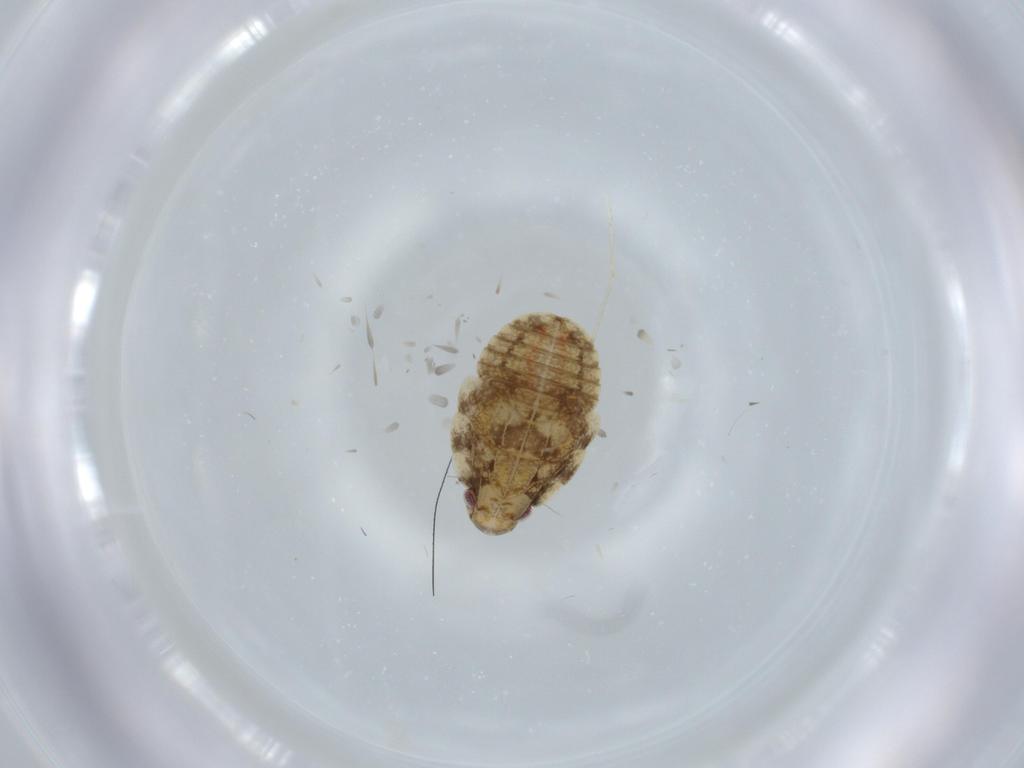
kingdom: Animalia
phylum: Arthropoda
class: Insecta
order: Hemiptera
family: Flatidae
